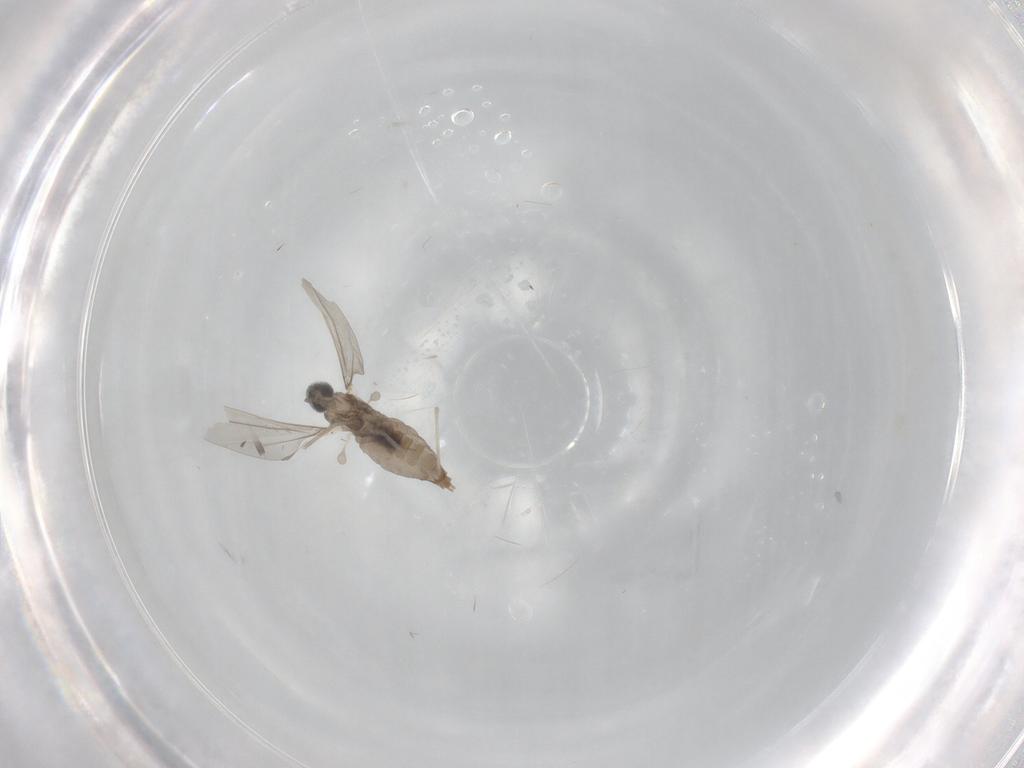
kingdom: Animalia
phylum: Arthropoda
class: Insecta
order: Diptera
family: Cecidomyiidae
